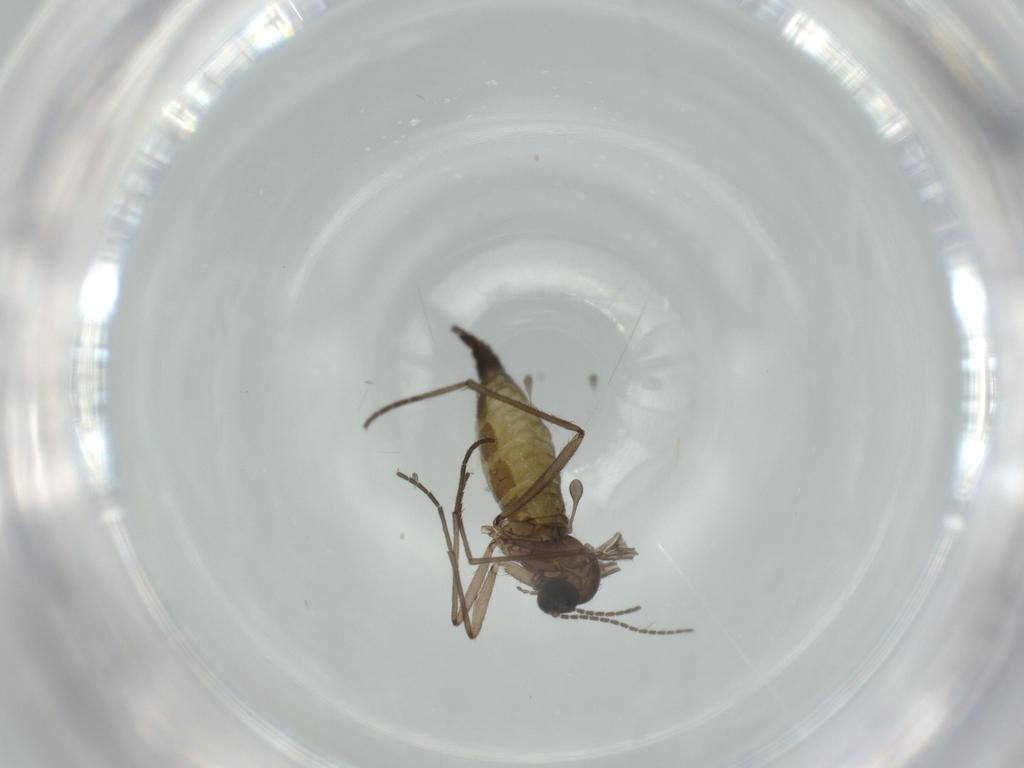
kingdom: Animalia
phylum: Arthropoda
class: Insecta
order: Diptera
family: Sciaridae
